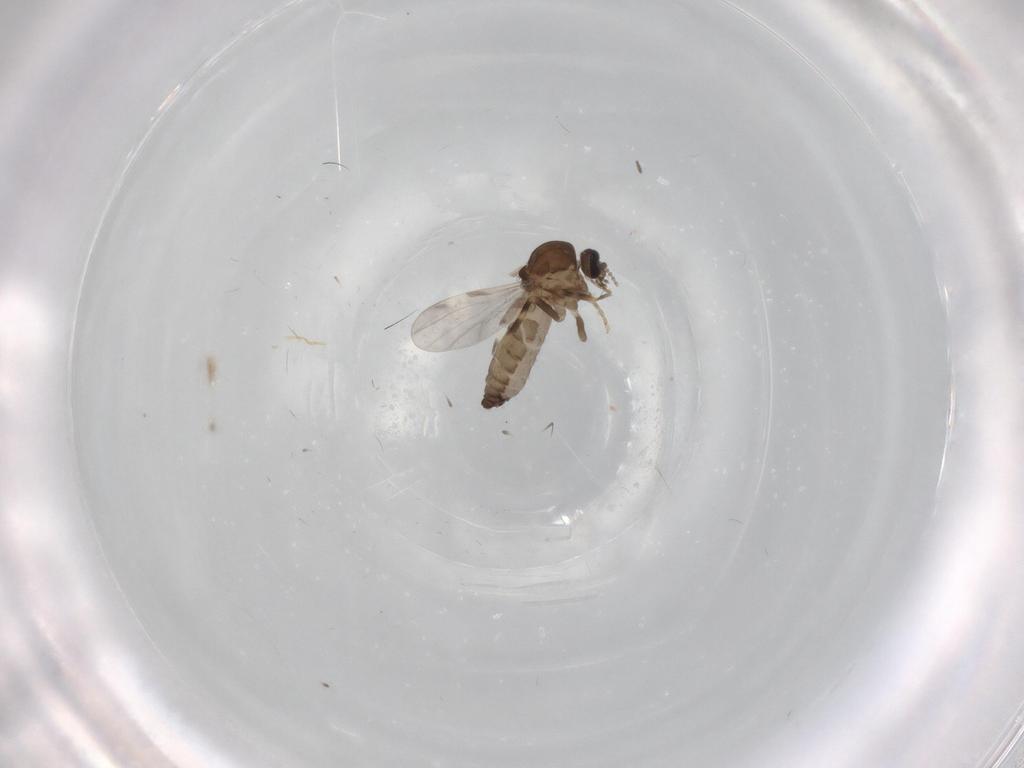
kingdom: Animalia
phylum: Arthropoda
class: Insecta
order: Diptera
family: Ceratopogonidae
